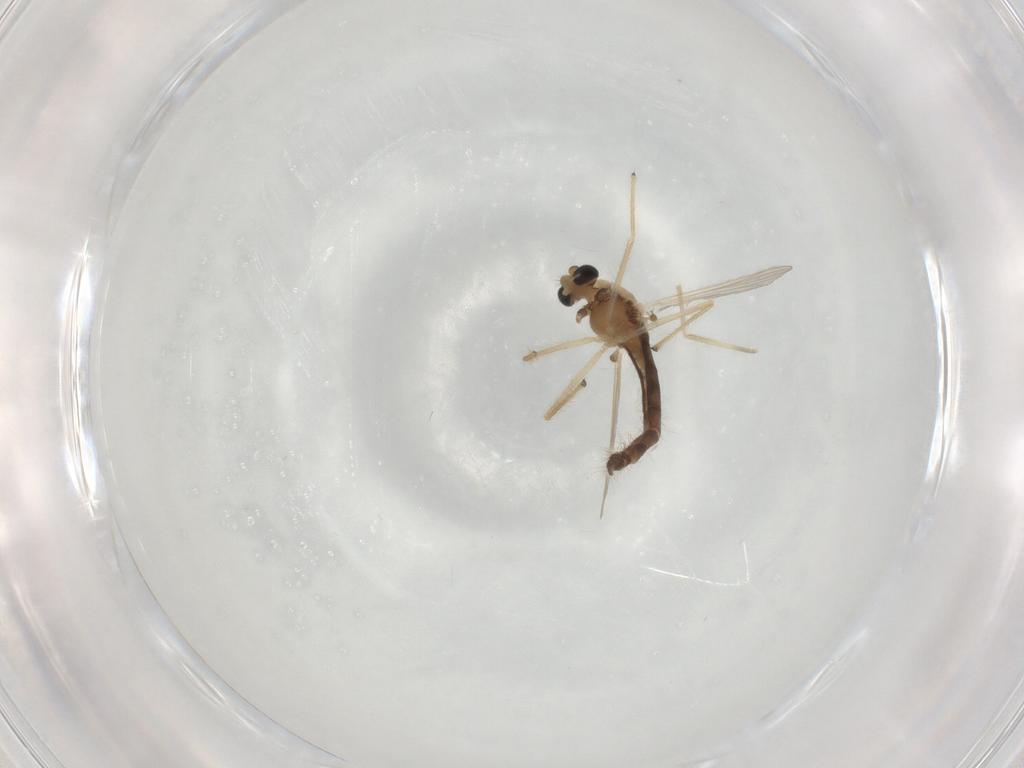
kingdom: Animalia
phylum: Arthropoda
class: Insecta
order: Diptera
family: Chironomidae
